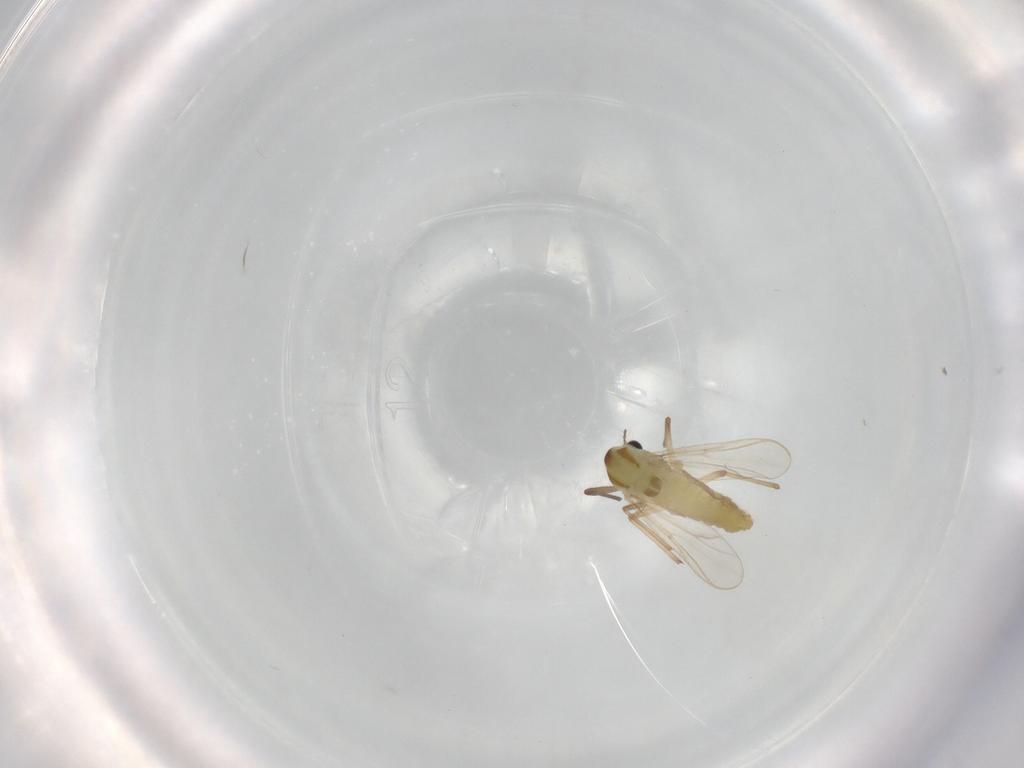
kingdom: Animalia
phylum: Arthropoda
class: Insecta
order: Diptera
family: Chironomidae
